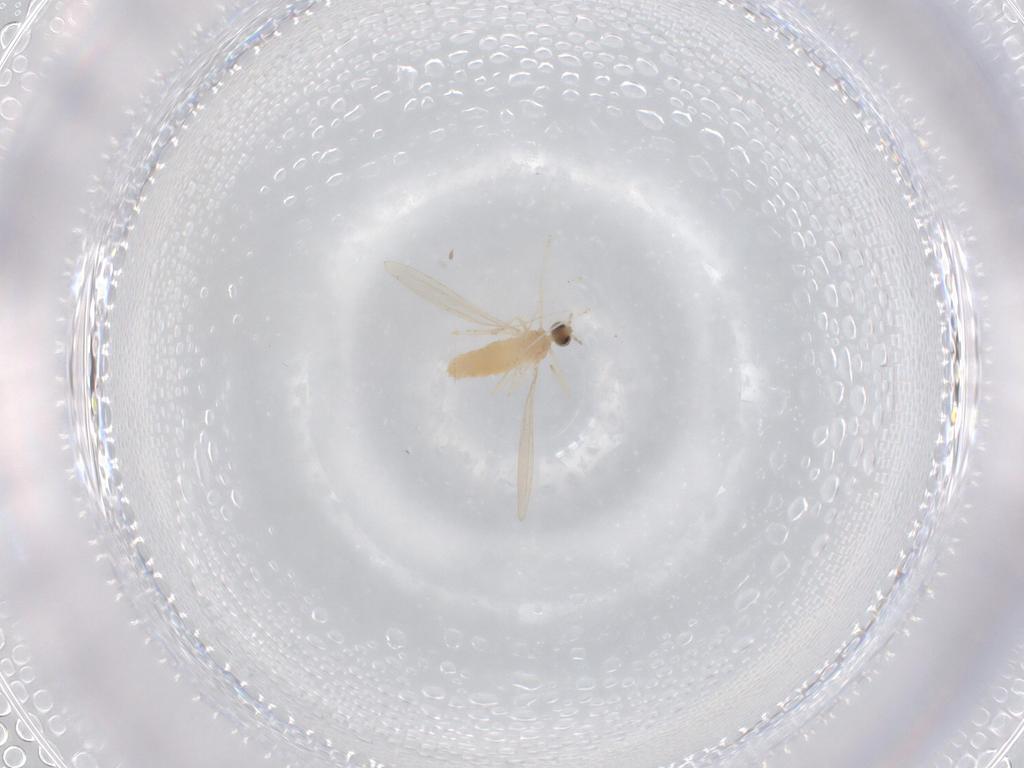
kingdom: Animalia
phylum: Arthropoda
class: Insecta
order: Diptera
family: Cecidomyiidae
